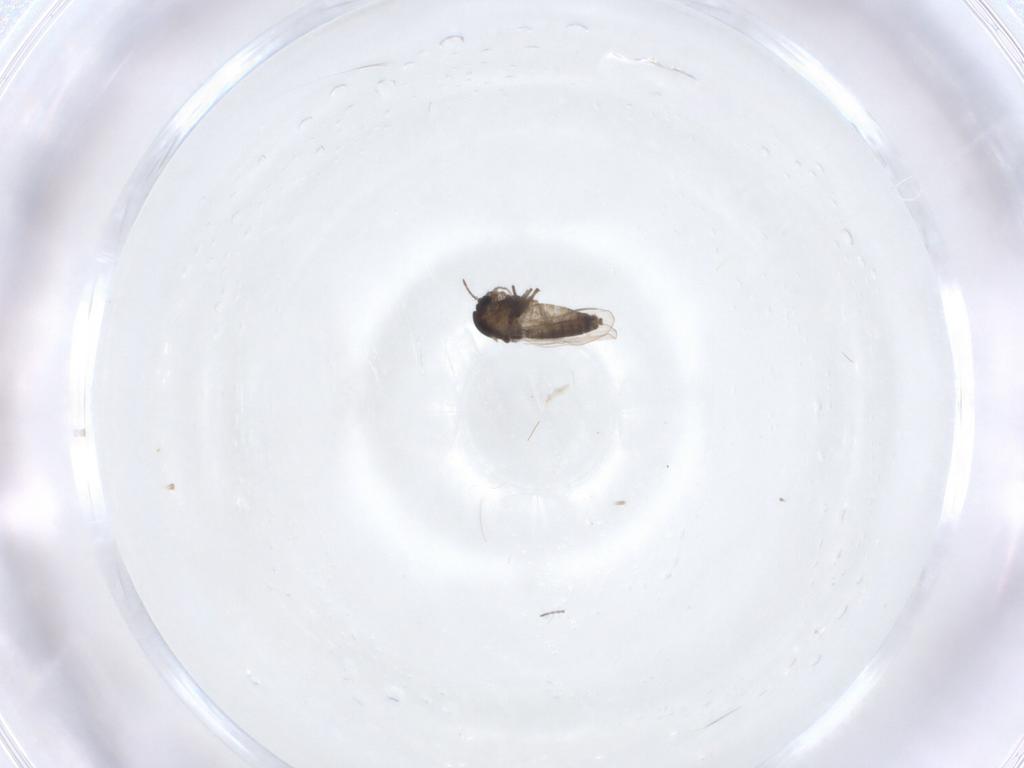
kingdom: Animalia
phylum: Arthropoda
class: Insecta
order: Diptera
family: Chironomidae
